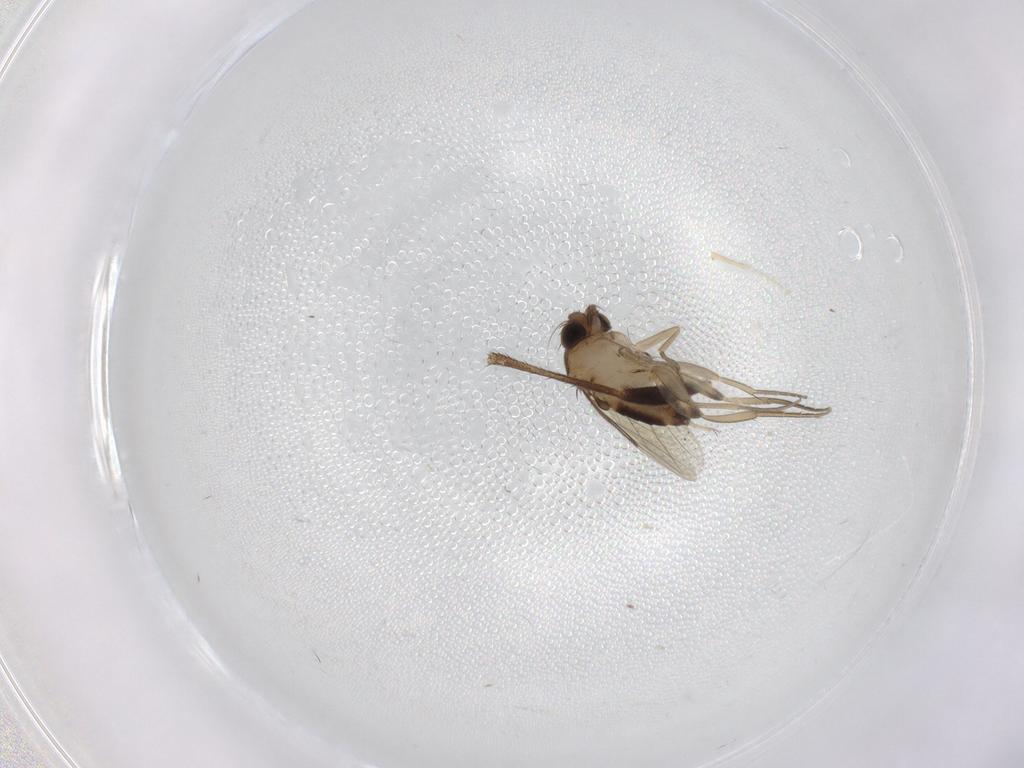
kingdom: Animalia
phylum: Arthropoda
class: Insecta
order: Diptera
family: Phoridae
